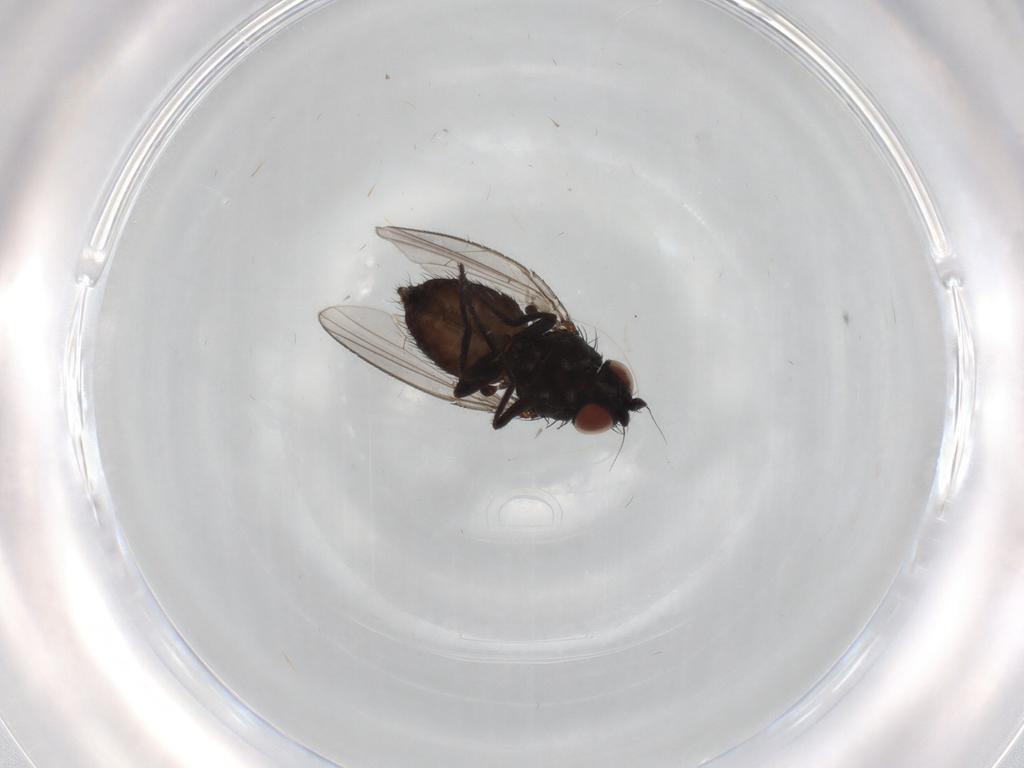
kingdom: Animalia
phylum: Arthropoda
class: Insecta
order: Diptera
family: Milichiidae
